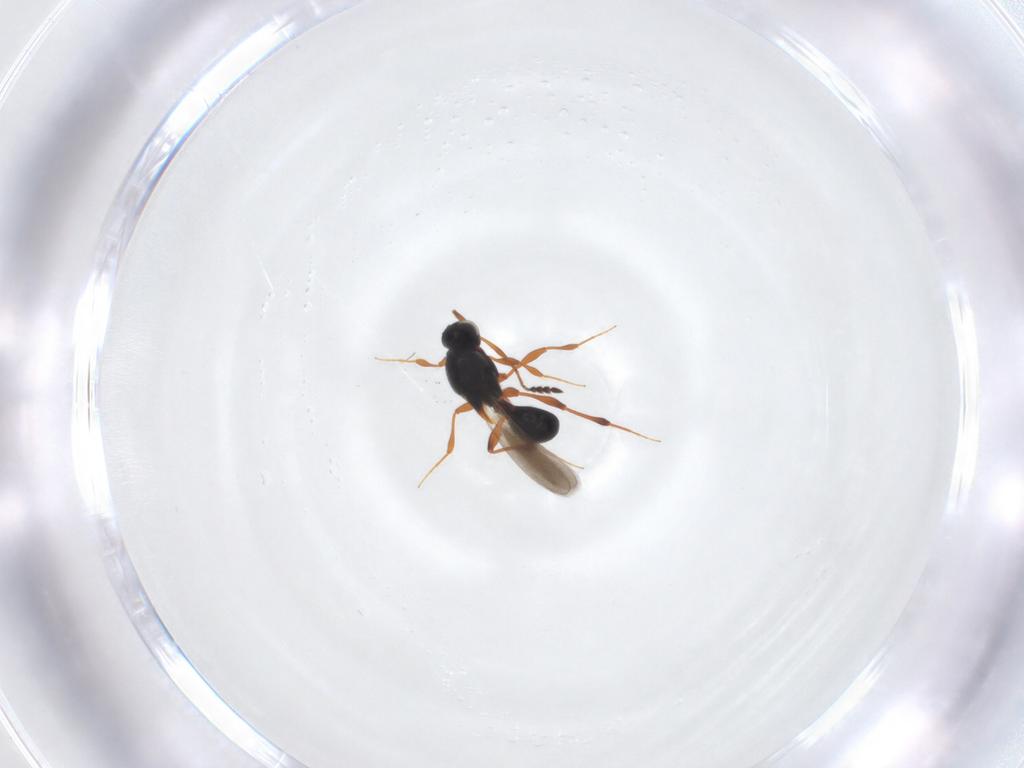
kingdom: Animalia
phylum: Arthropoda
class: Insecta
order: Hymenoptera
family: Platygastridae
